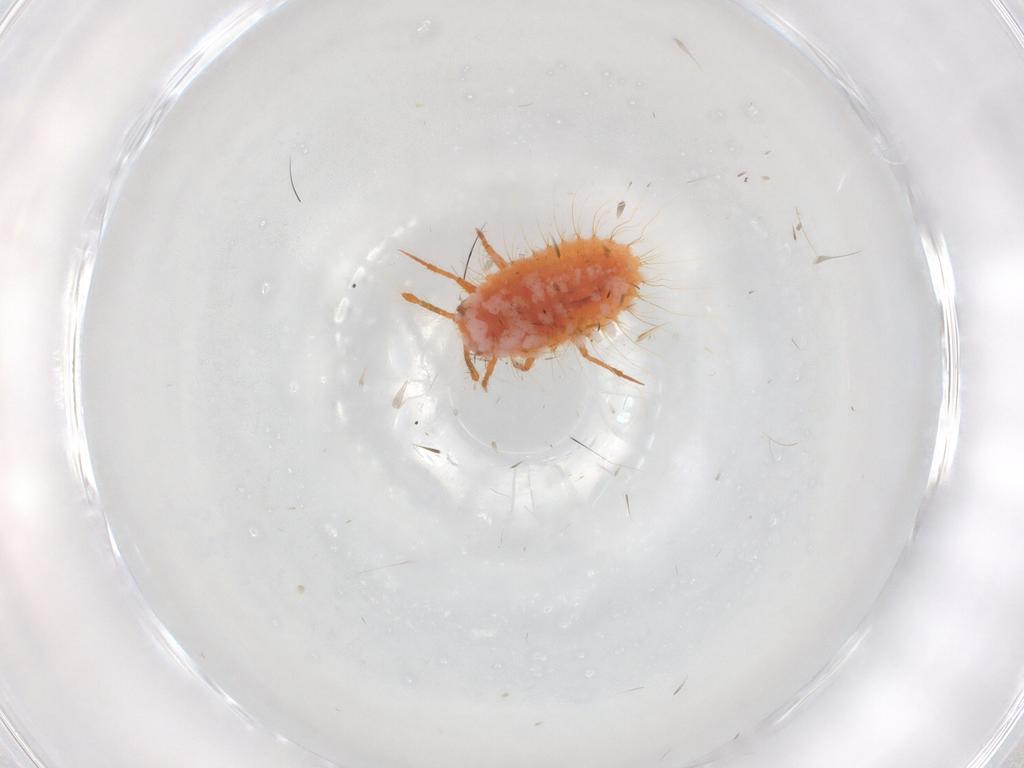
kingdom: Animalia
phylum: Arthropoda
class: Insecta
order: Hemiptera
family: Coccoidea_incertae_sedis
